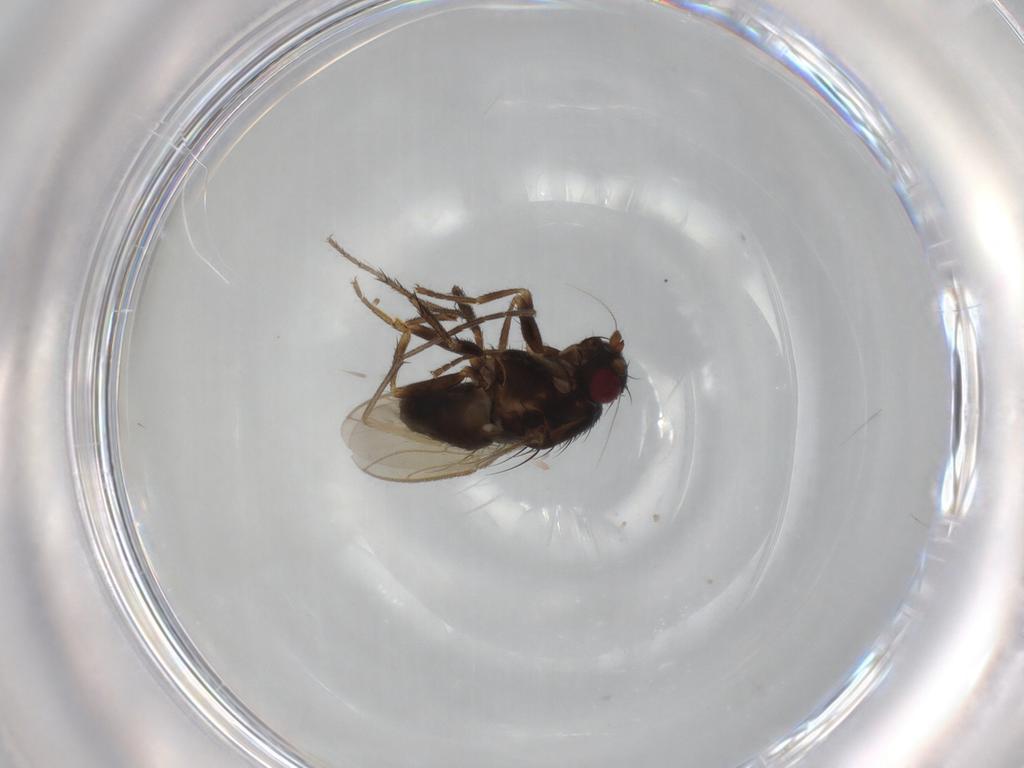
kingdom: Animalia
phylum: Arthropoda
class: Insecta
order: Diptera
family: Sphaeroceridae
